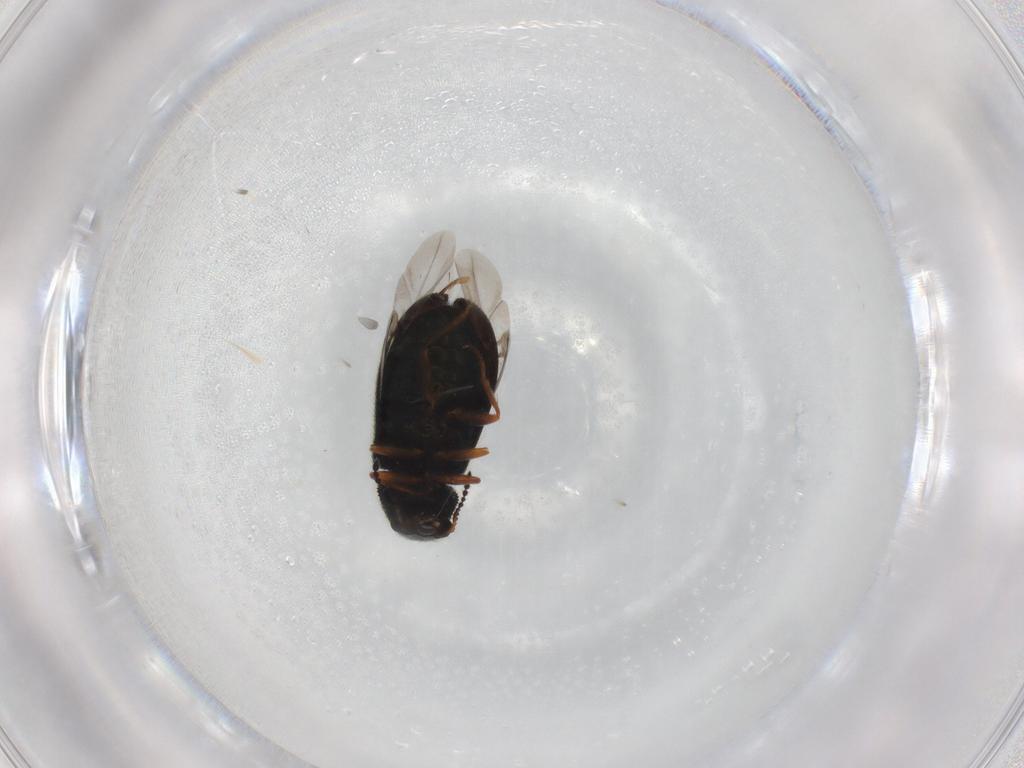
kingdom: Animalia
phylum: Arthropoda
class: Insecta
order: Coleoptera
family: Melyridae
